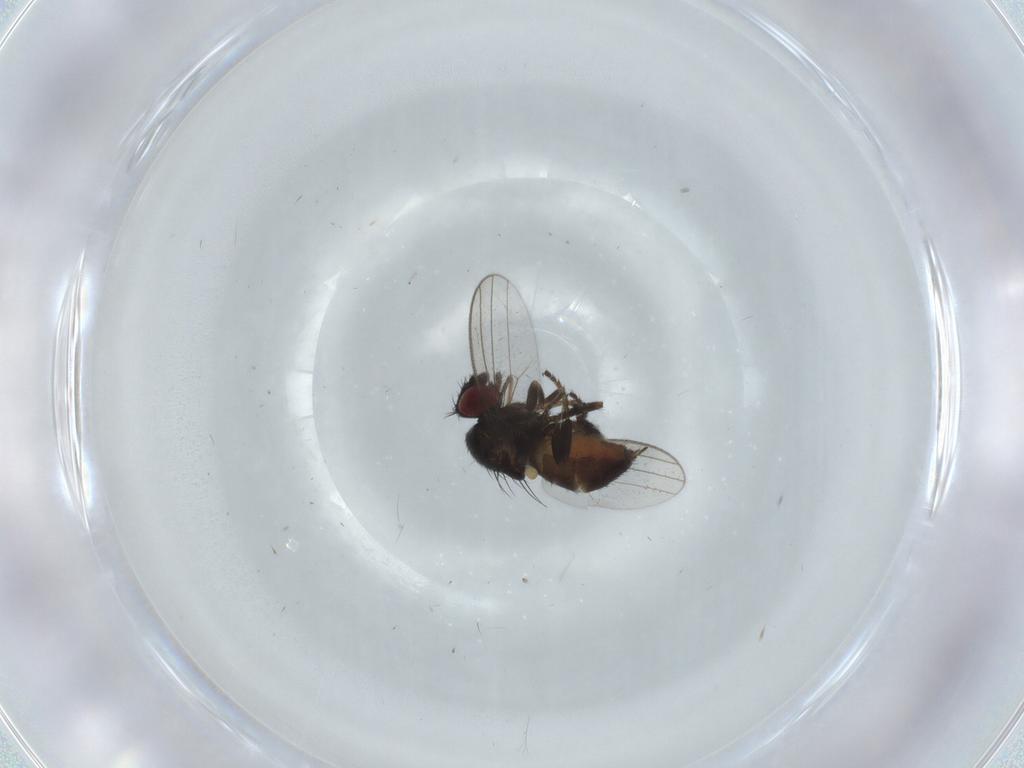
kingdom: Animalia
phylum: Arthropoda
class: Insecta
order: Diptera
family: Milichiidae
